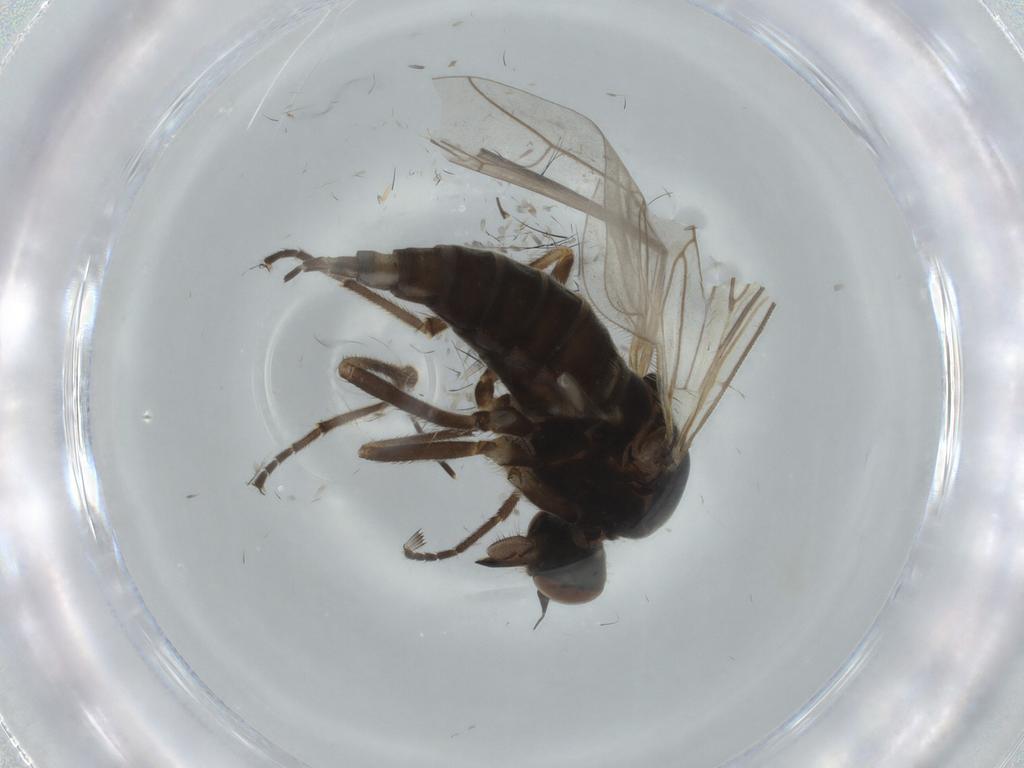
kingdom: Animalia
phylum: Arthropoda
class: Insecta
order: Diptera
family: Empididae
